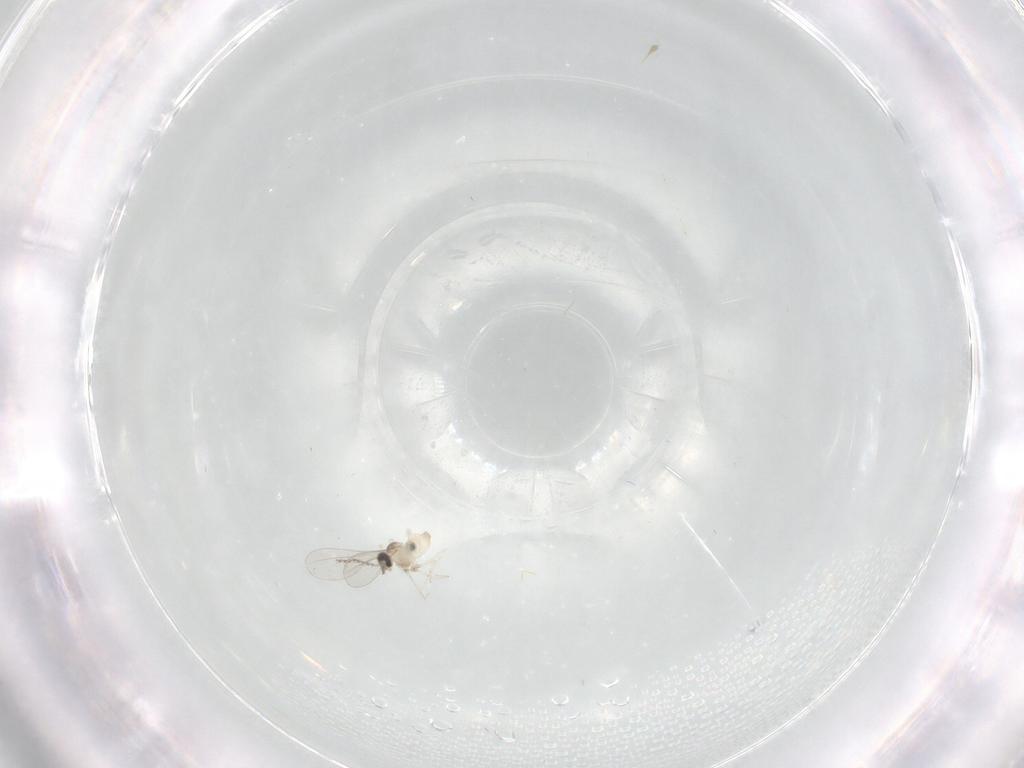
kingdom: Animalia
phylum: Arthropoda
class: Insecta
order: Diptera
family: Cecidomyiidae
